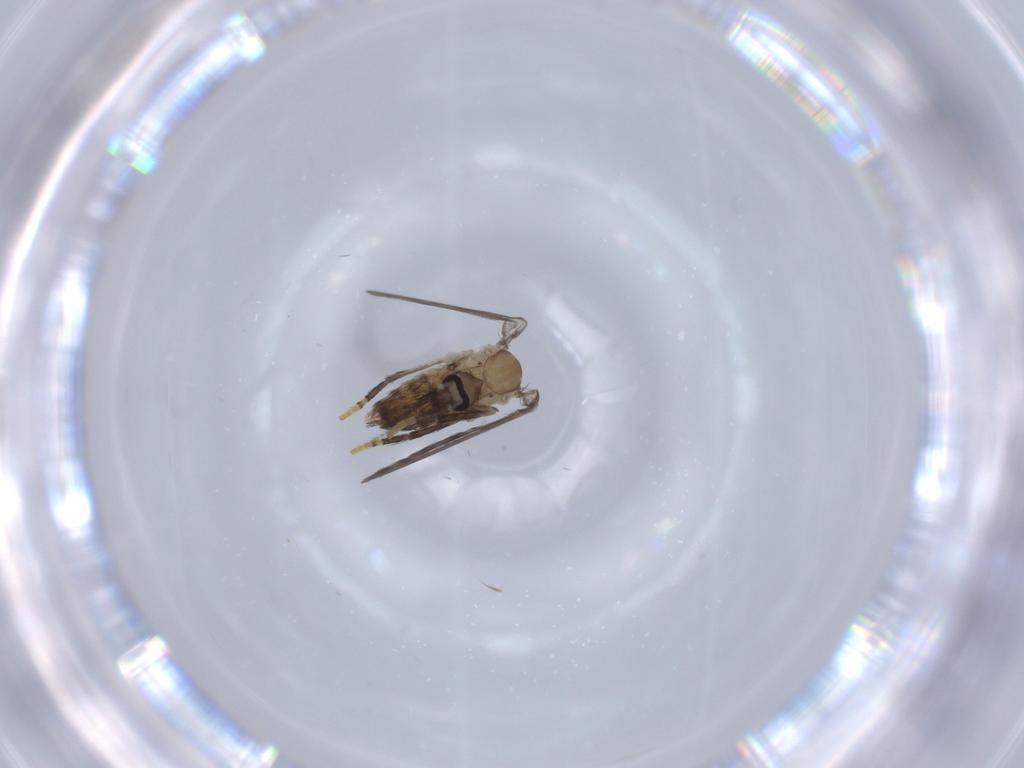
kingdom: Animalia
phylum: Arthropoda
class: Insecta
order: Diptera
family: Psychodidae
